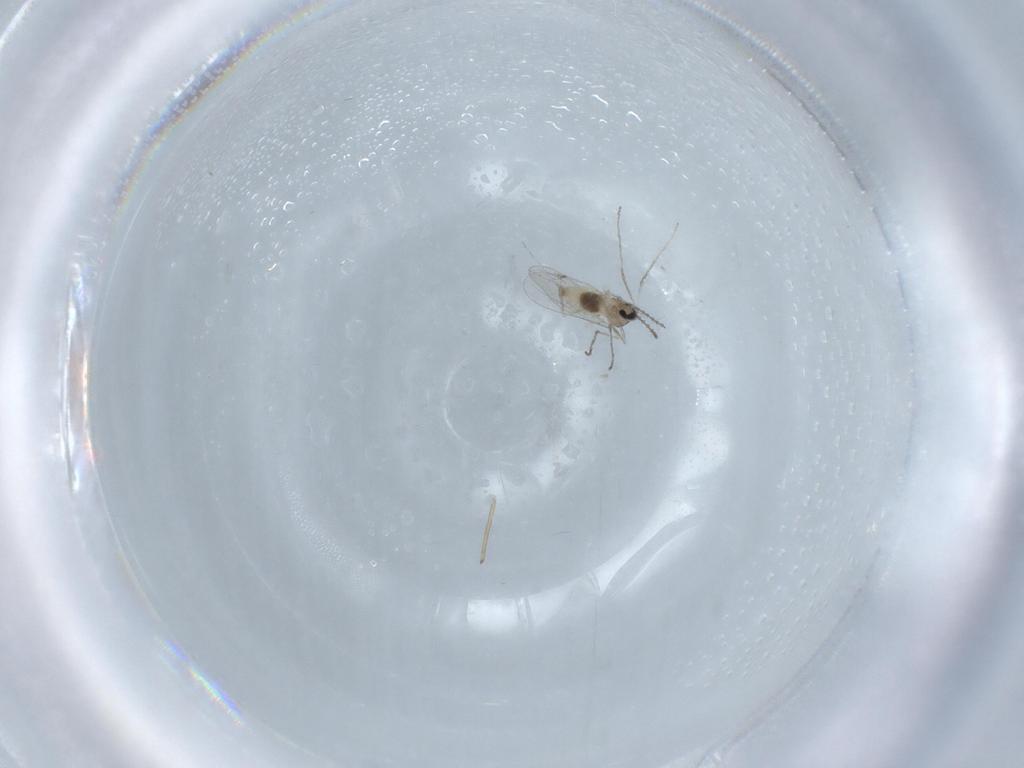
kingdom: Animalia
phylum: Arthropoda
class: Insecta
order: Diptera
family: Cecidomyiidae
